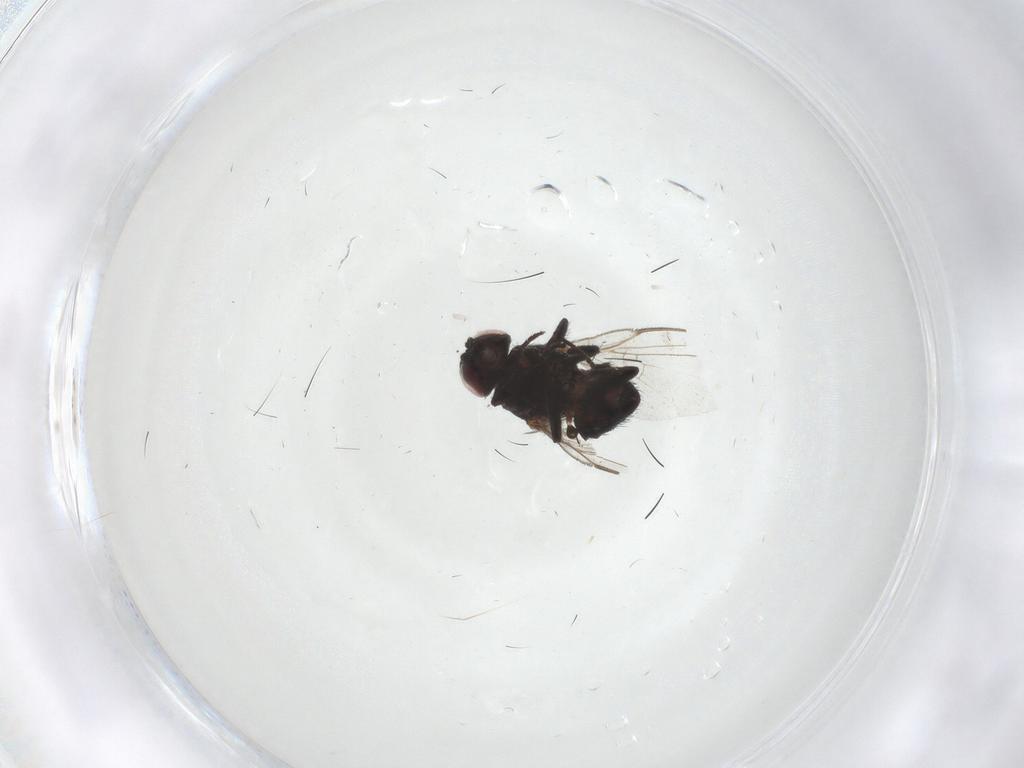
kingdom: Animalia
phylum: Arthropoda
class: Insecta
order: Diptera
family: Agromyzidae
